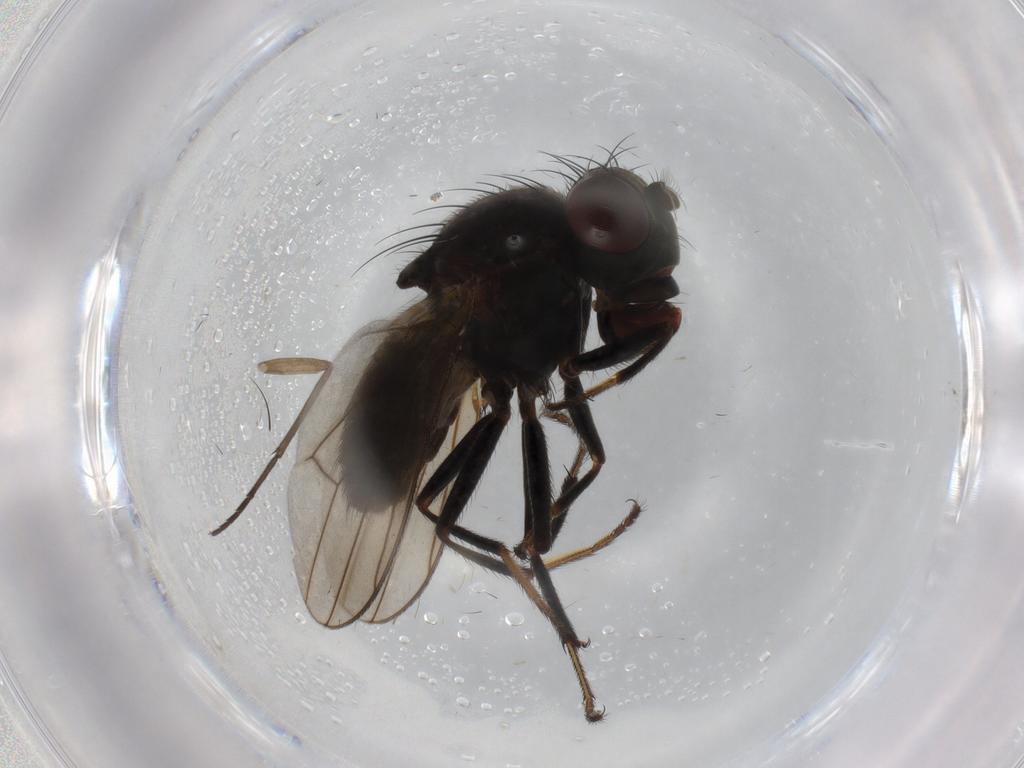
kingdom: Animalia
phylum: Arthropoda
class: Insecta
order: Diptera
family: Ephydridae
